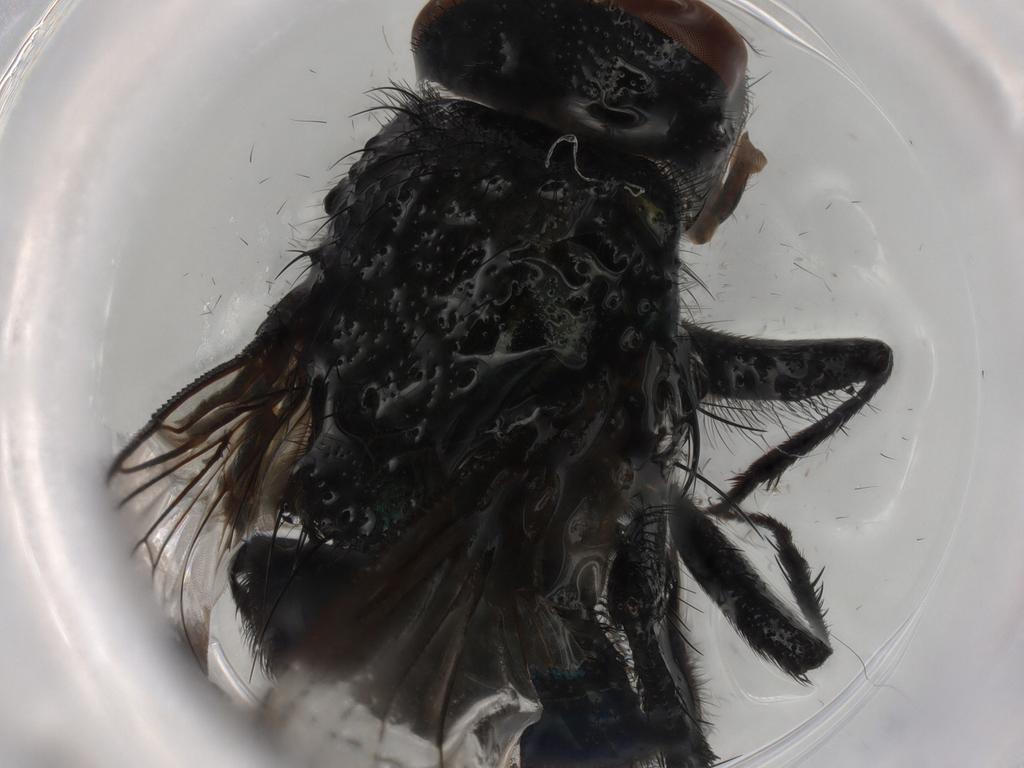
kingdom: Animalia
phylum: Arthropoda
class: Insecta
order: Diptera
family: Calliphoridae
